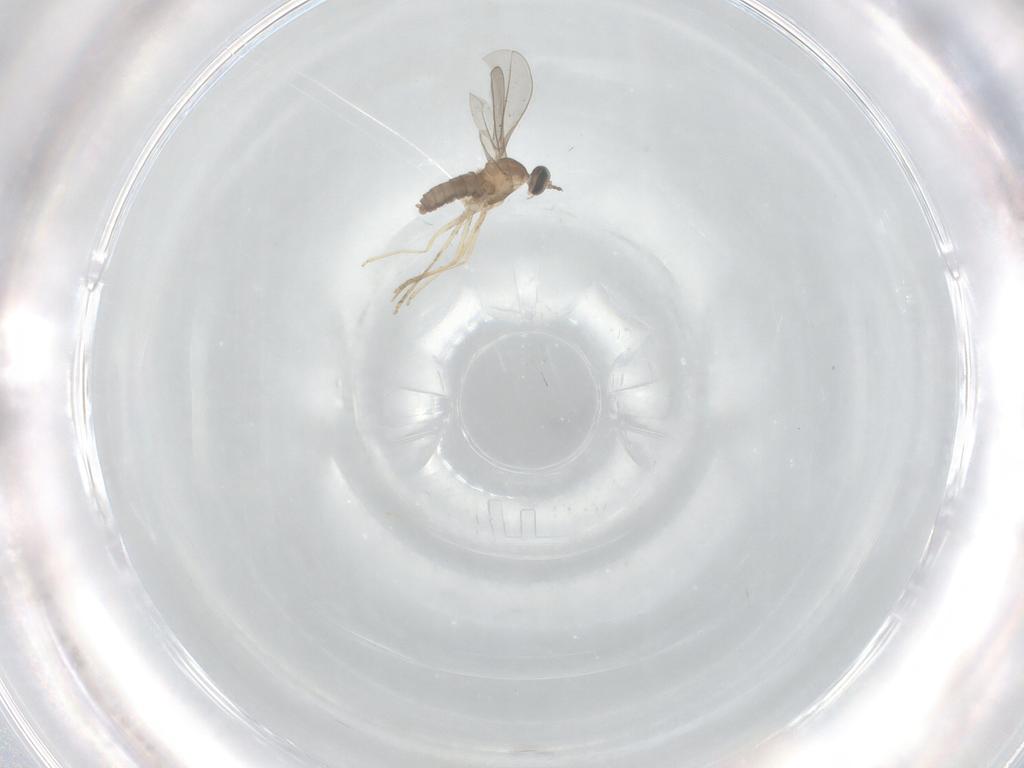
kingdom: Animalia
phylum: Arthropoda
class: Insecta
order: Diptera
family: Cecidomyiidae
